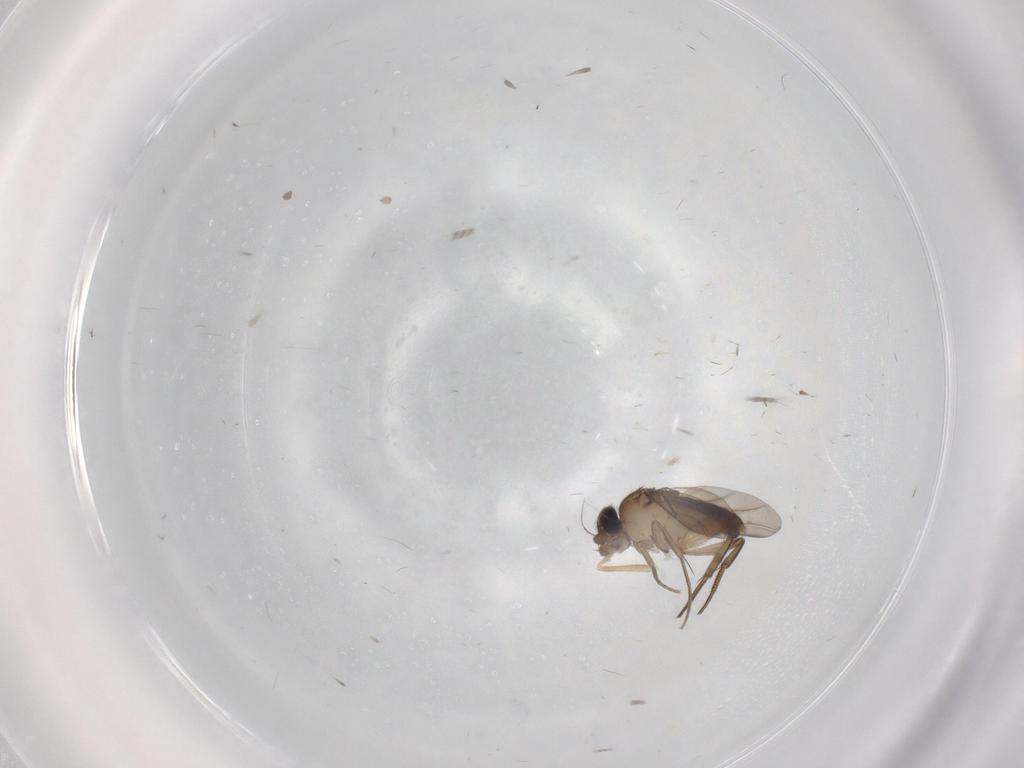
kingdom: Animalia
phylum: Arthropoda
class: Insecta
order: Diptera
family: Phoridae
